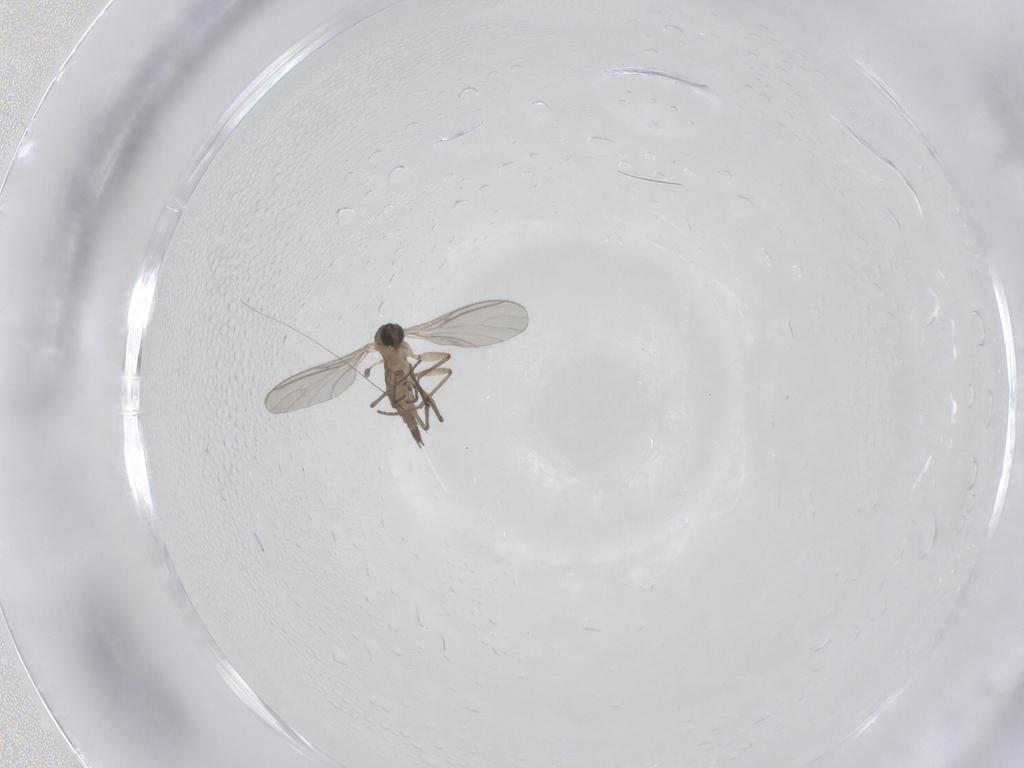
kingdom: Animalia
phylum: Arthropoda
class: Insecta
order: Diptera
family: Sciaridae
